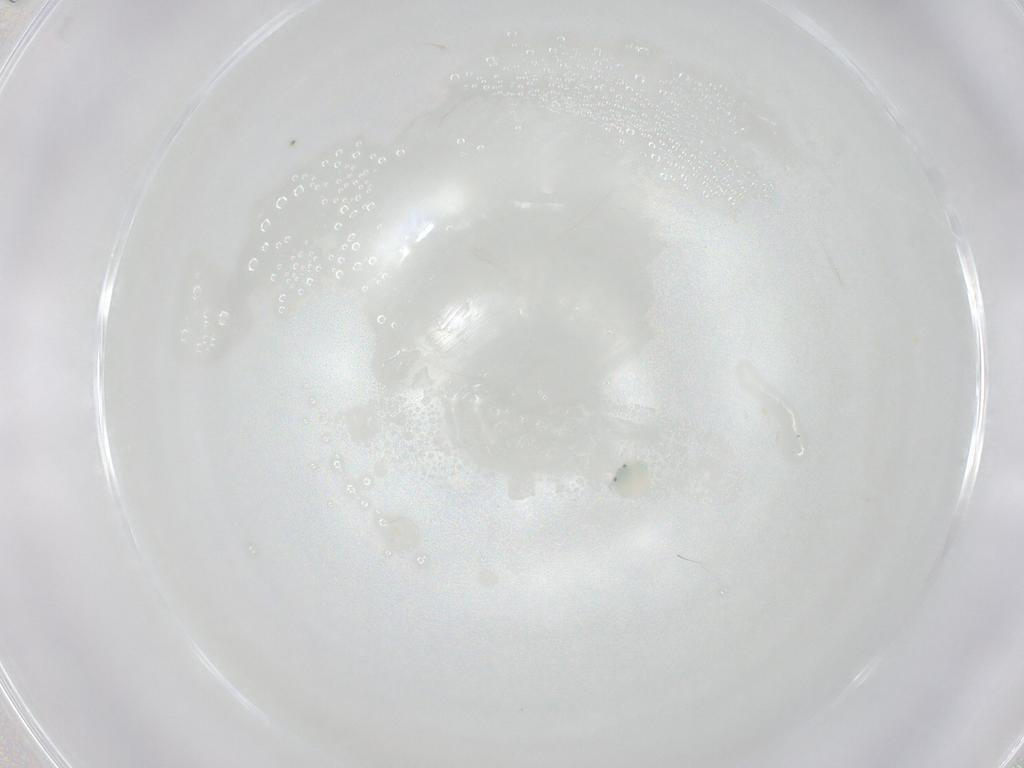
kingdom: Animalia
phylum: Arthropoda
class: Arachnida
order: Trombidiformes
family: Arrenuridae
